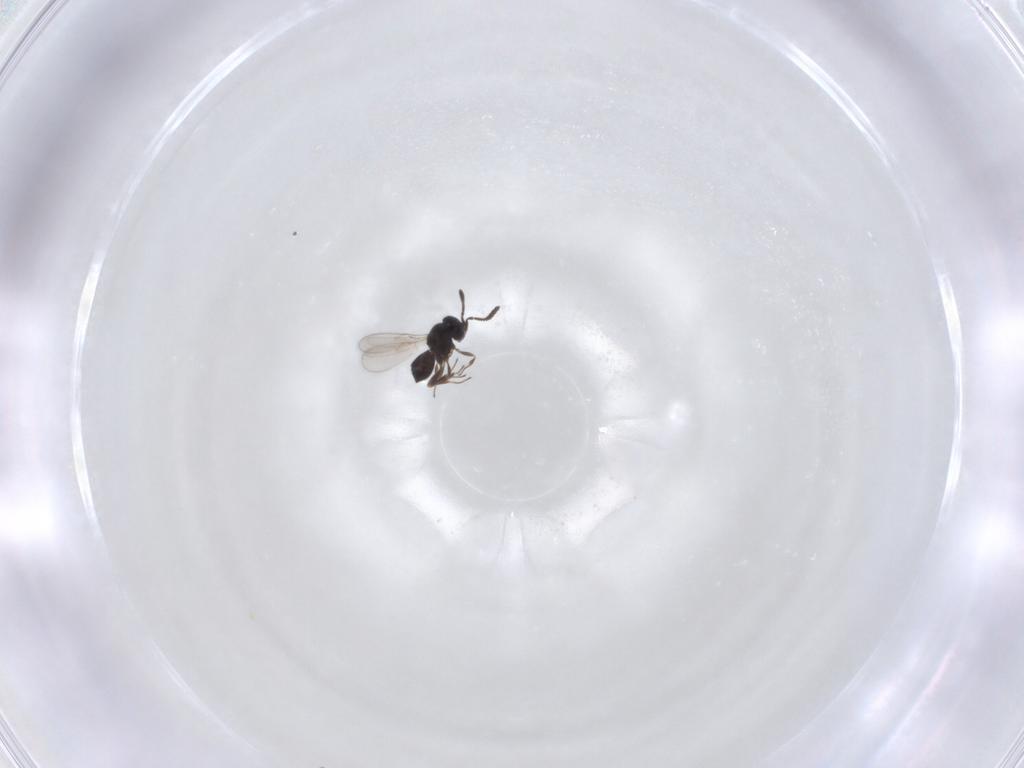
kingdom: Animalia
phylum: Arthropoda
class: Insecta
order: Hymenoptera
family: Scelionidae
